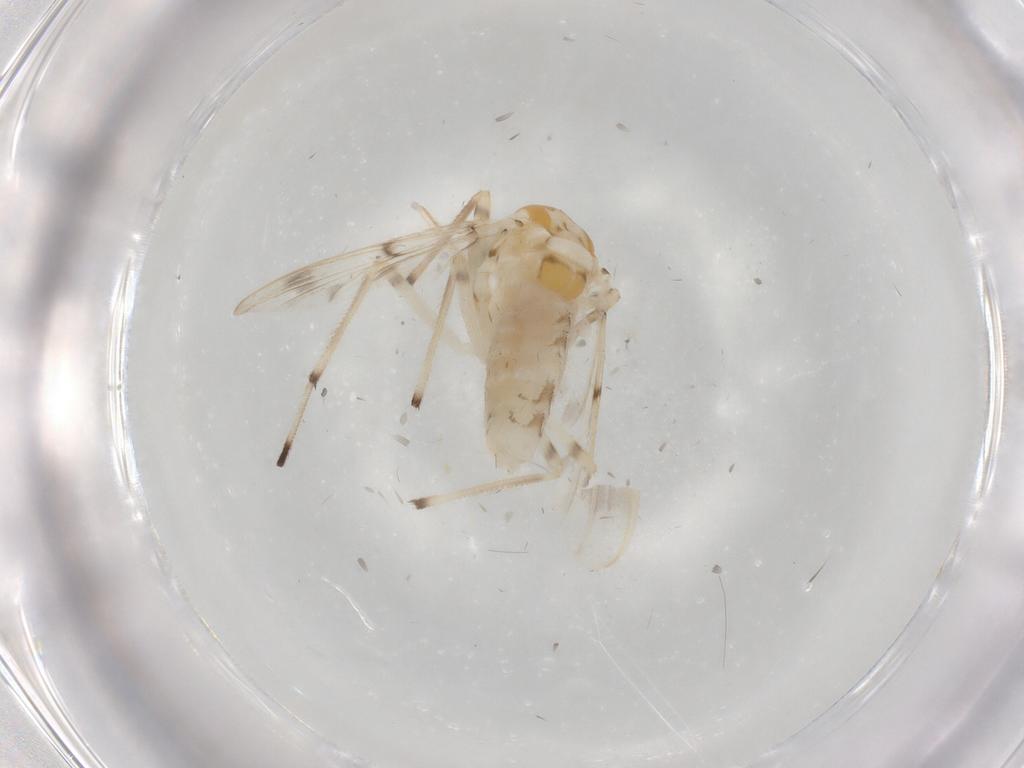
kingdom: Animalia
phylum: Arthropoda
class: Insecta
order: Diptera
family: Chironomidae
